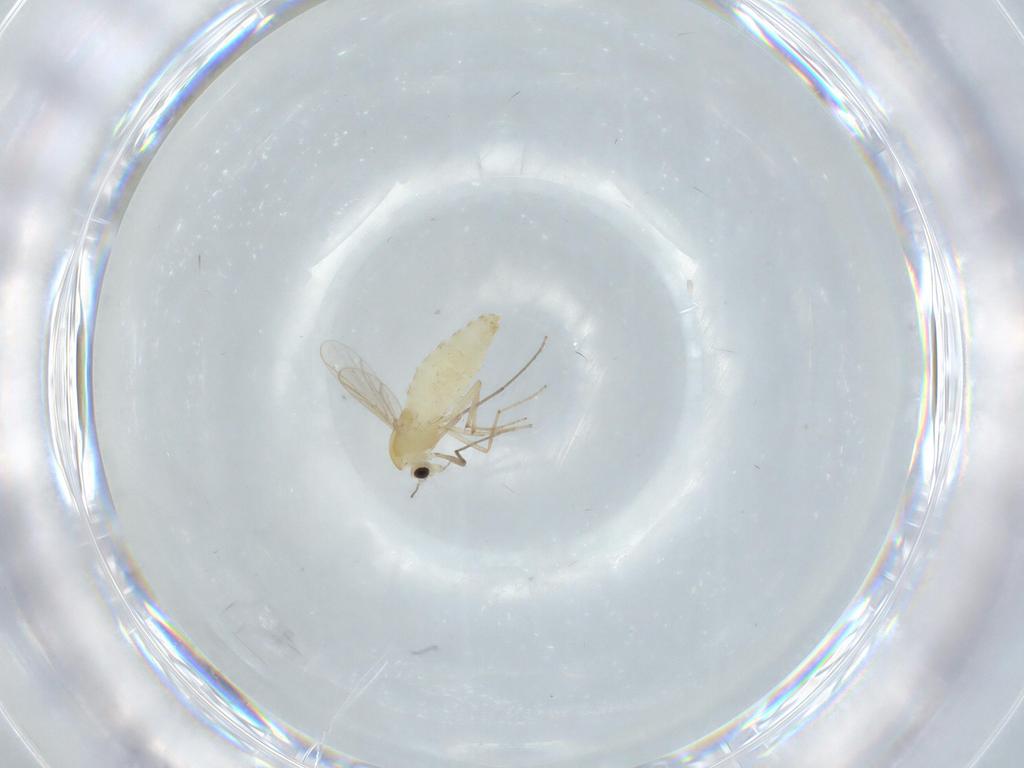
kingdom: Animalia
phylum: Arthropoda
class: Insecta
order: Diptera
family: Chironomidae
